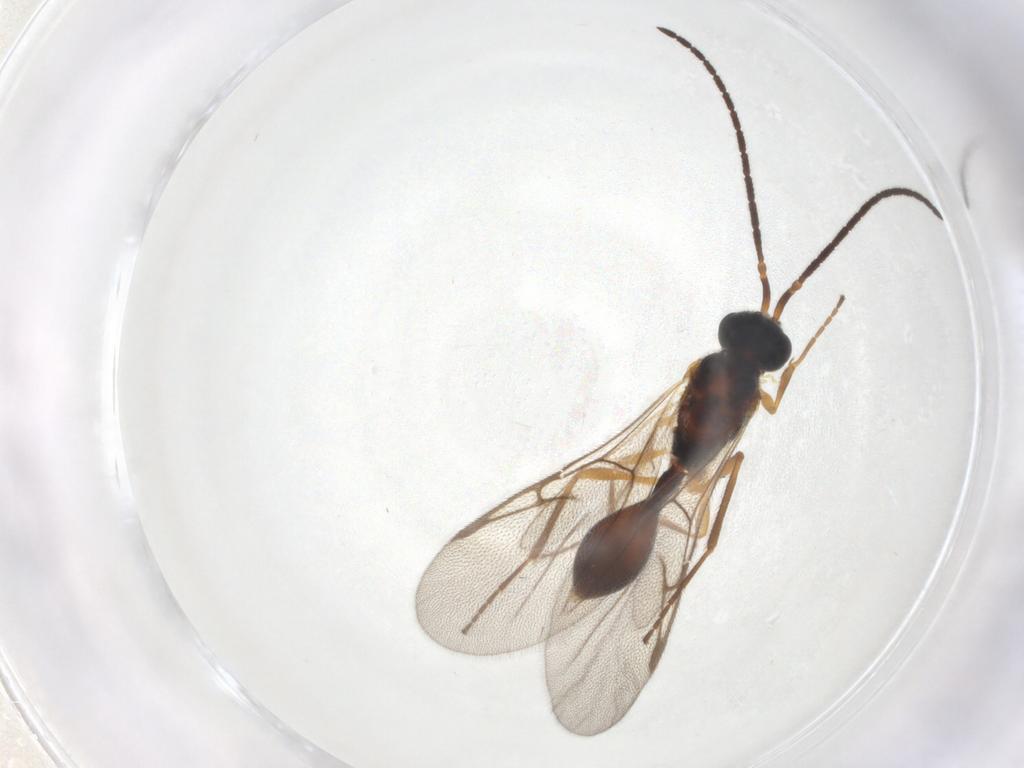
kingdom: Animalia
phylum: Arthropoda
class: Insecta
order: Hymenoptera
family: Diapriidae
